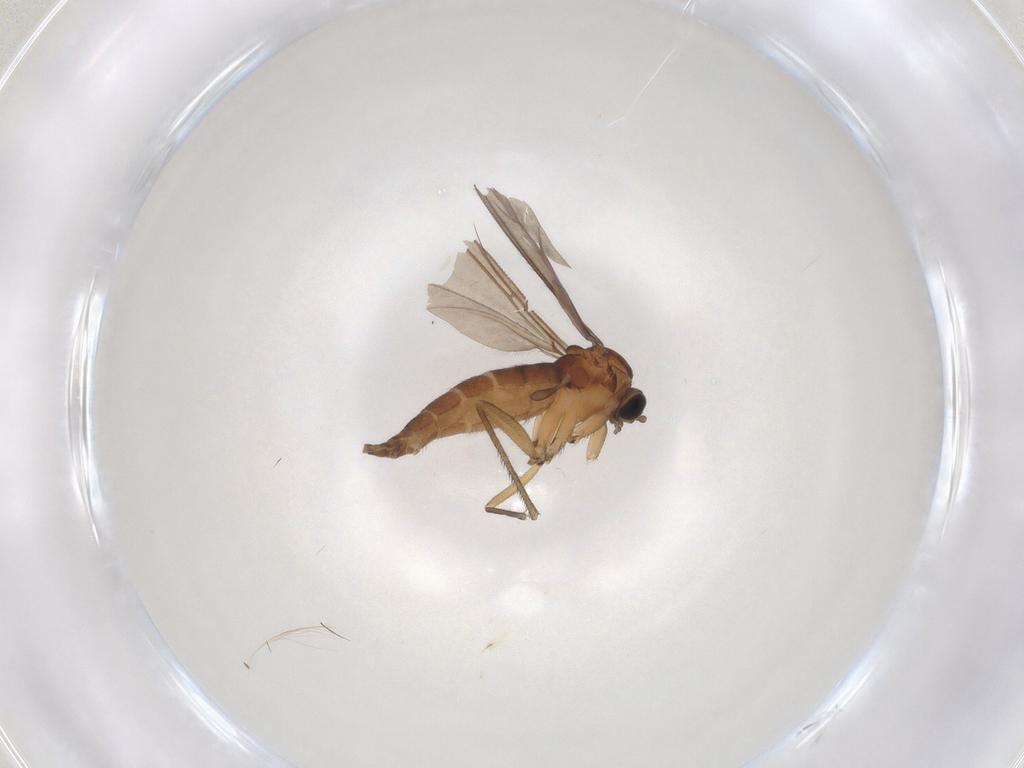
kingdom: Animalia
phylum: Arthropoda
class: Insecta
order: Diptera
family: Sciaridae
